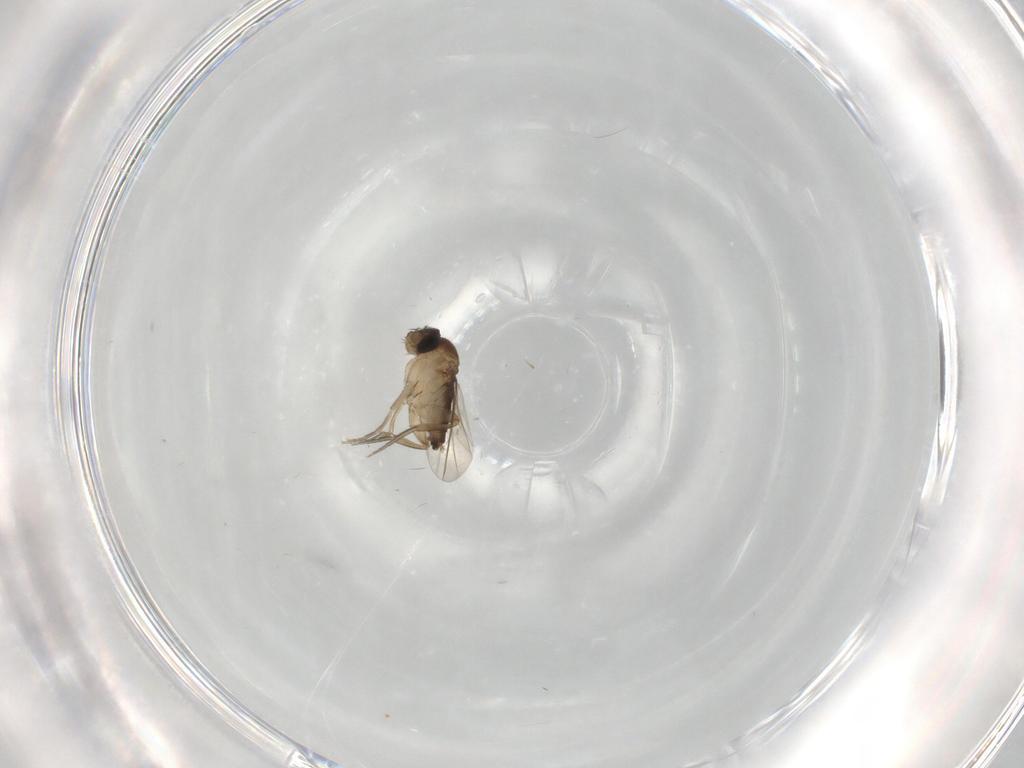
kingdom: Animalia
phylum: Arthropoda
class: Insecta
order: Diptera
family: Phoridae
